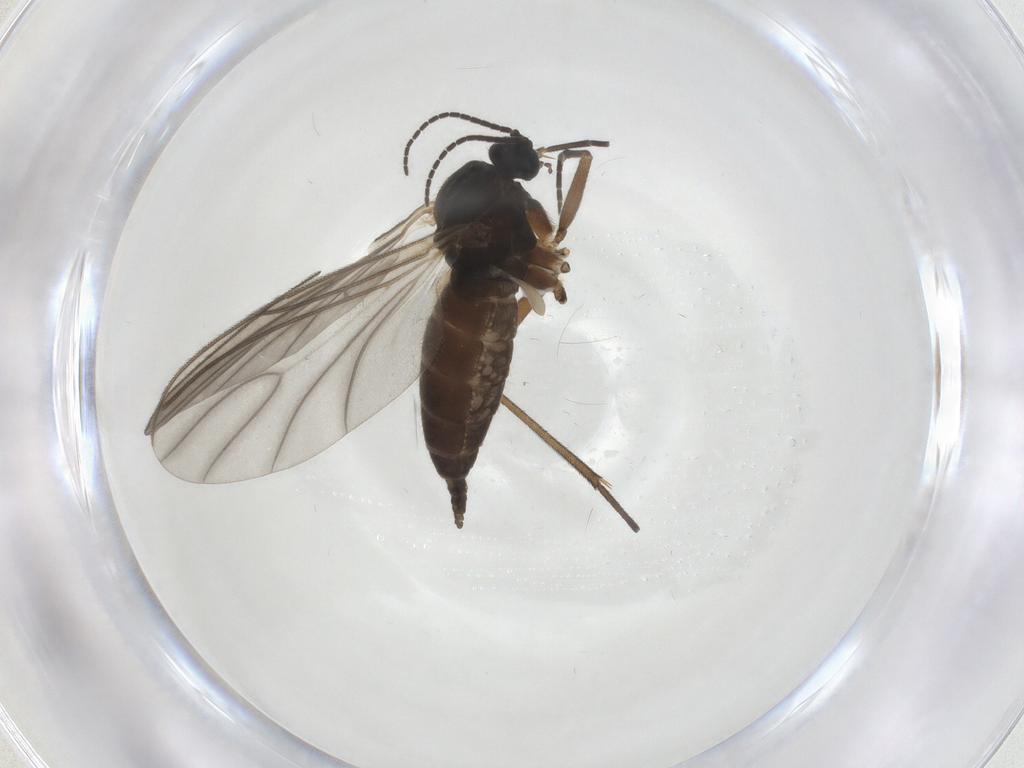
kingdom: Animalia
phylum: Arthropoda
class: Insecta
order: Diptera
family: Sciaridae
